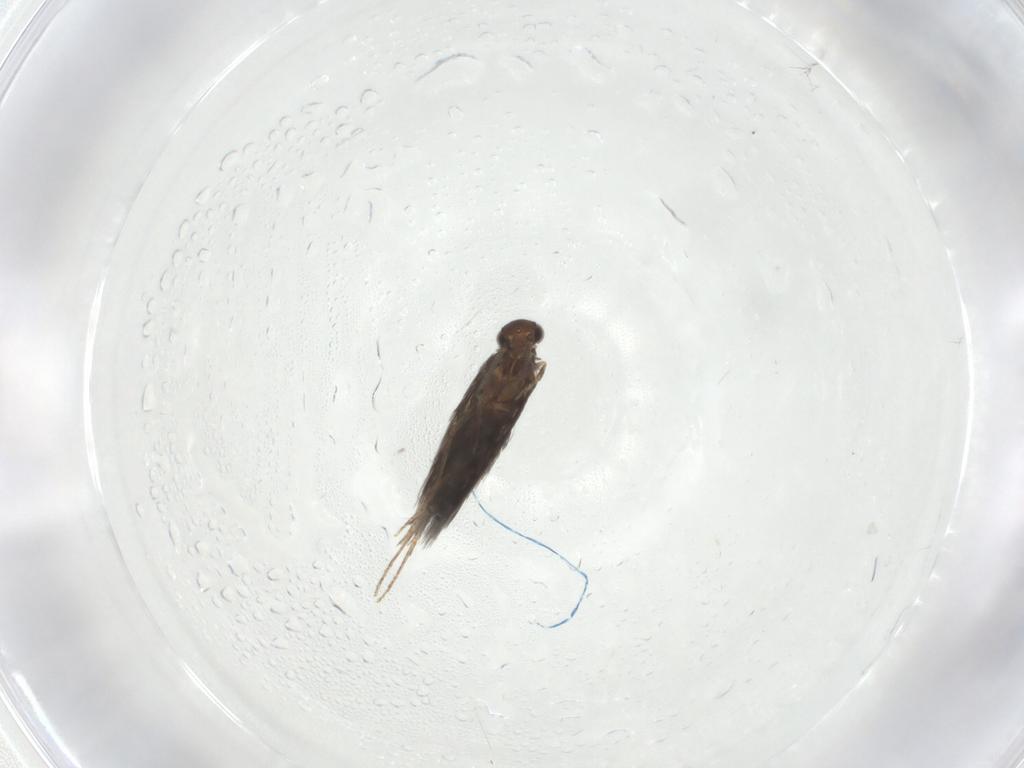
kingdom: Animalia
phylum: Arthropoda
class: Insecta
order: Trichoptera
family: Hydroptilidae
